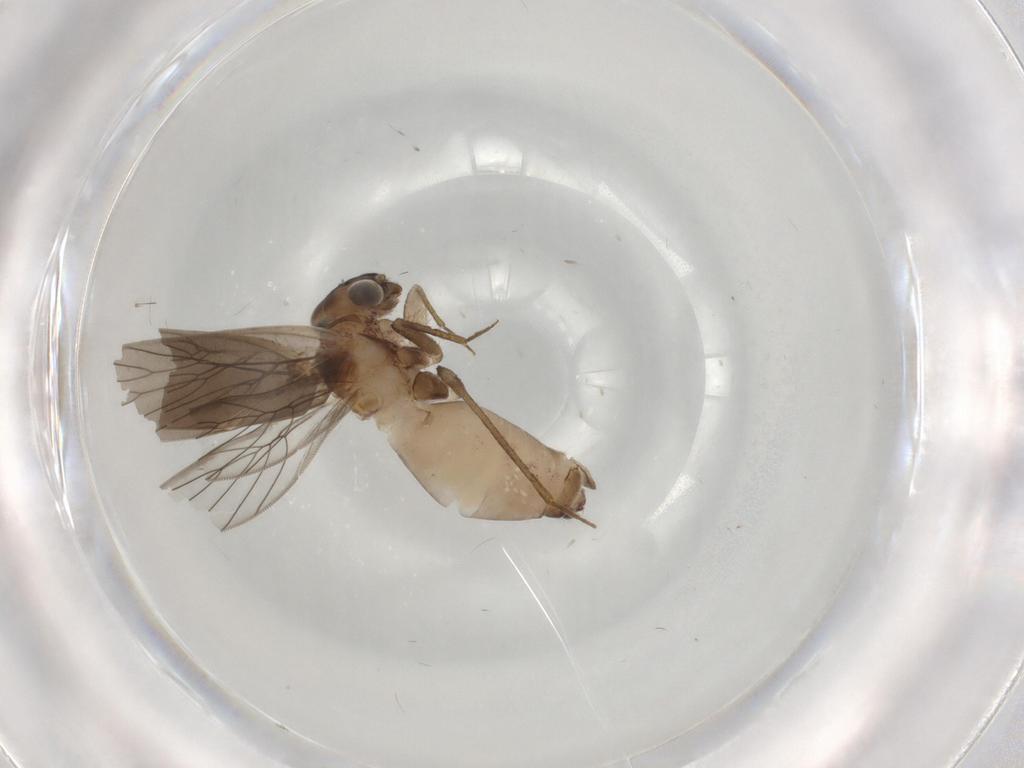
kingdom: Animalia
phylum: Arthropoda
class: Insecta
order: Psocodea
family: Lepidopsocidae
